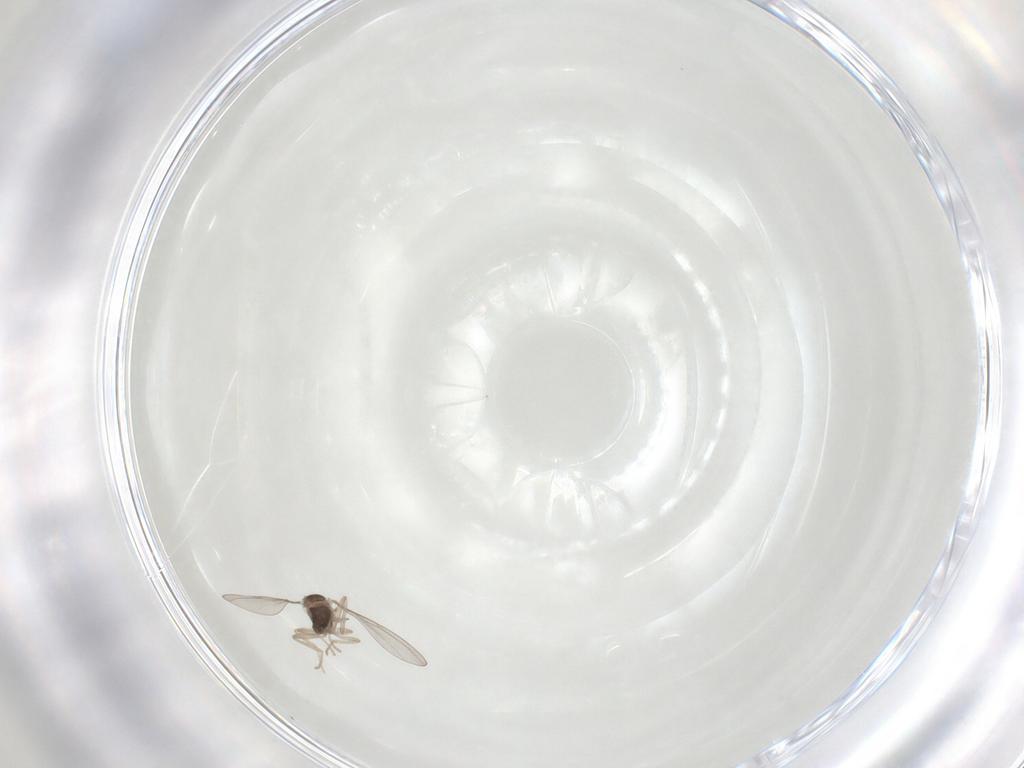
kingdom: Animalia
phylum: Arthropoda
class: Insecta
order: Diptera
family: Cecidomyiidae
